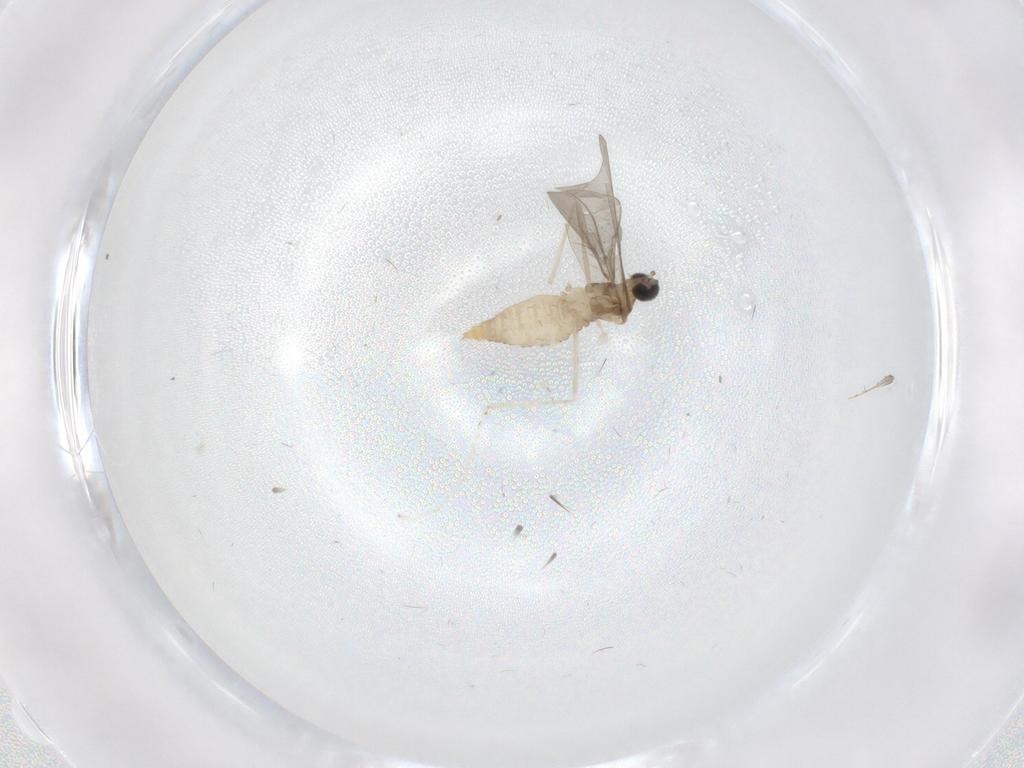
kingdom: Animalia
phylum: Arthropoda
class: Insecta
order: Diptera
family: Cecidomyiidae
